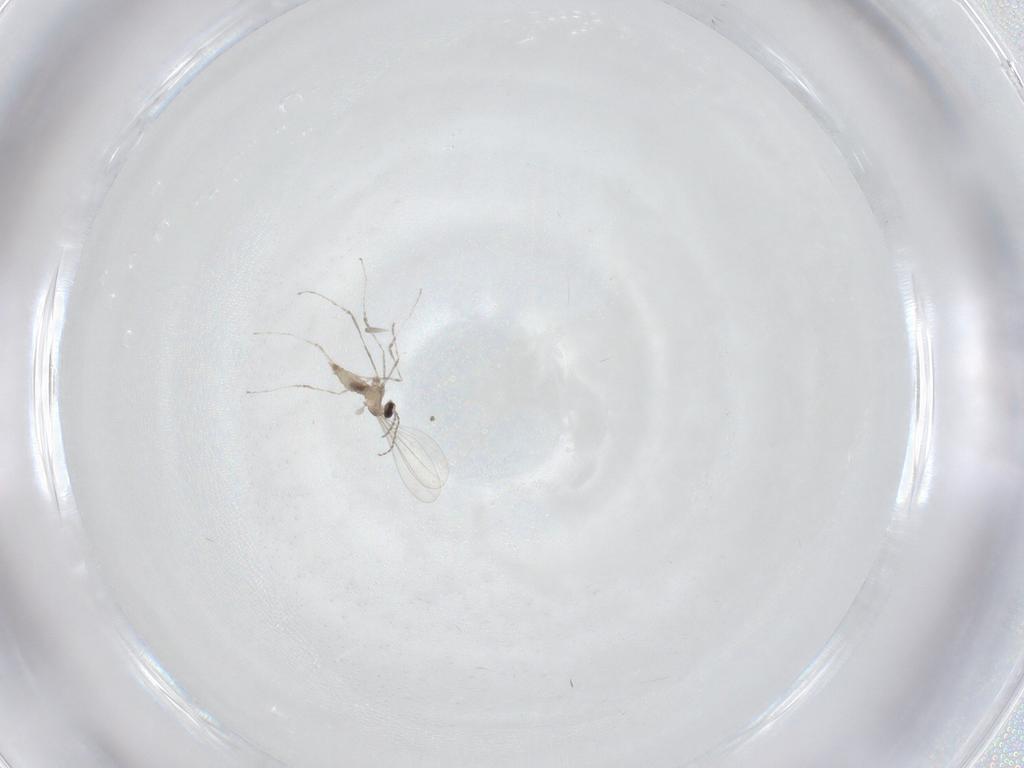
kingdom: Animalia
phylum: Arthropoda
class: Insecta
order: Diptera
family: Cecidomyiidae
